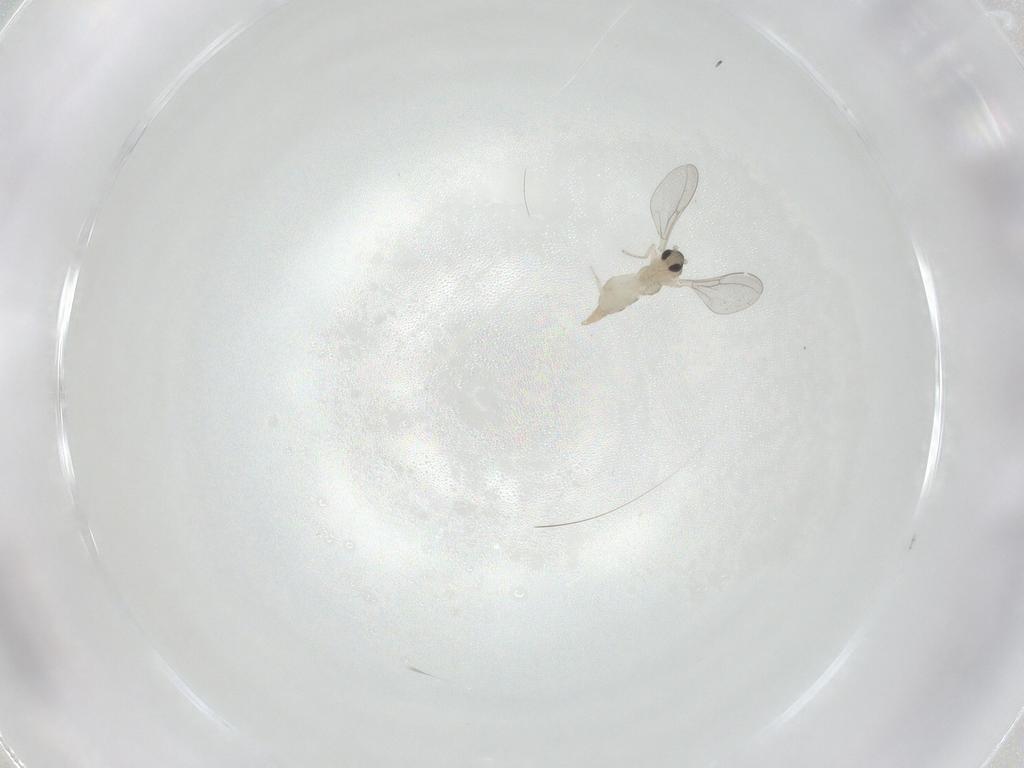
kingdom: Animalia
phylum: Arthropoda
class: Insecta
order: Diptera
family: Cecidomyiidae
